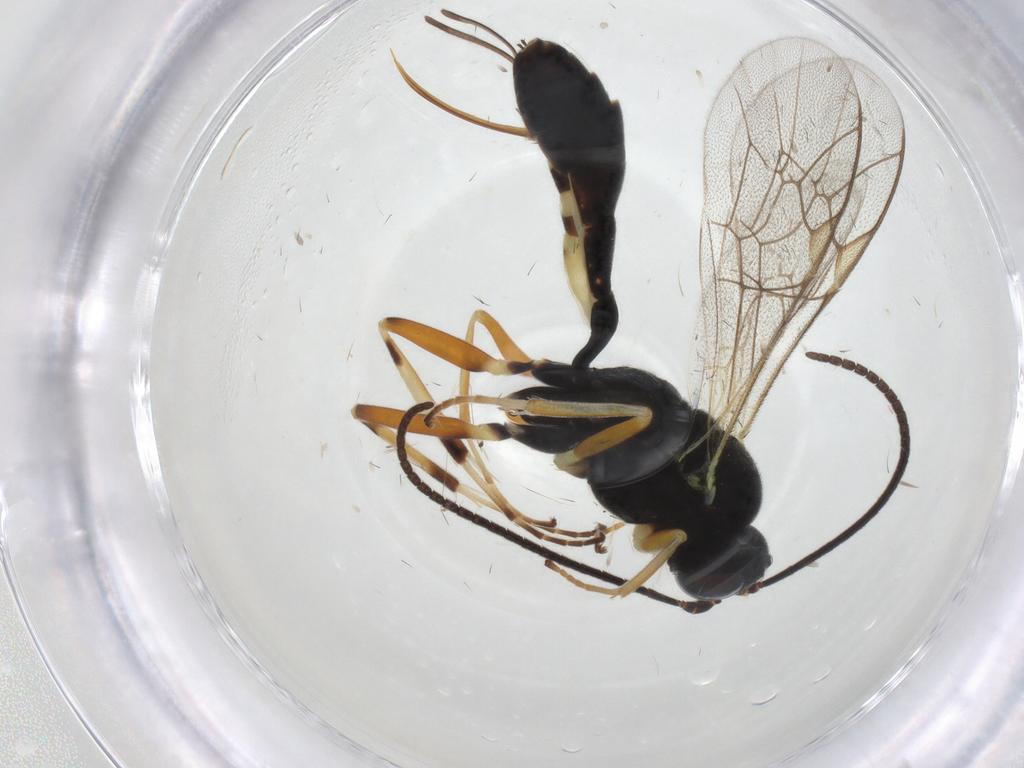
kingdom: Animalia
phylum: Arthropoda
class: Insecta
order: Hymenoptera
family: Ichneumonidae
